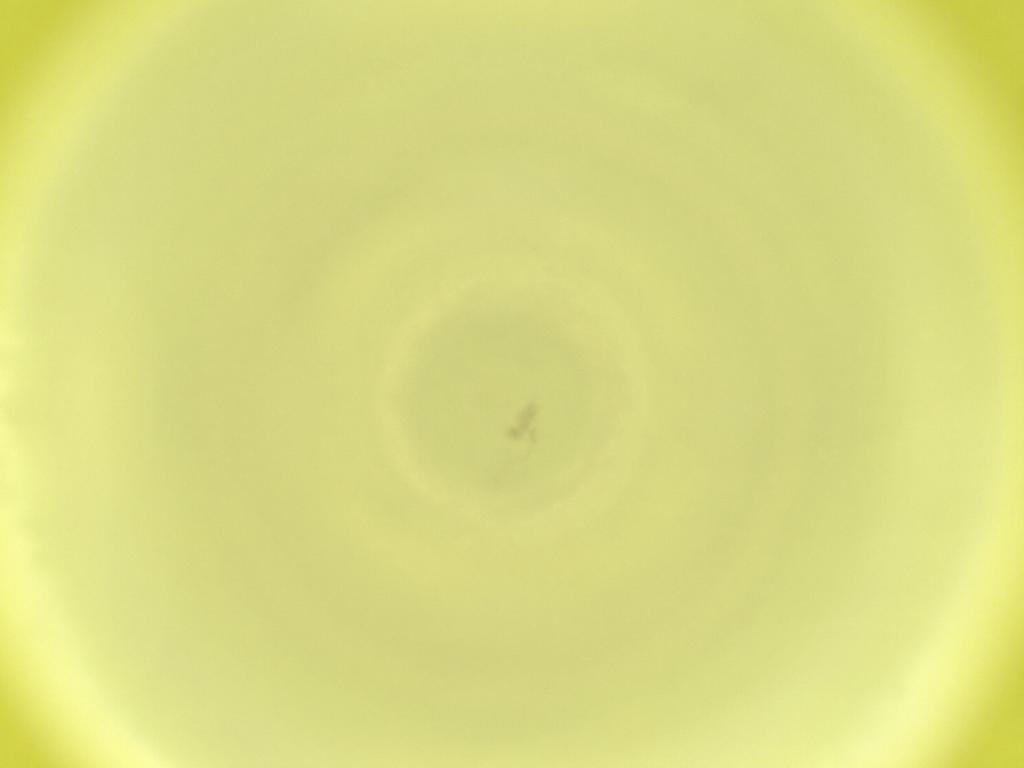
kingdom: Animalia
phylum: Arthropoda
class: Insecta
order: Diptera
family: Cecidomyiidae
